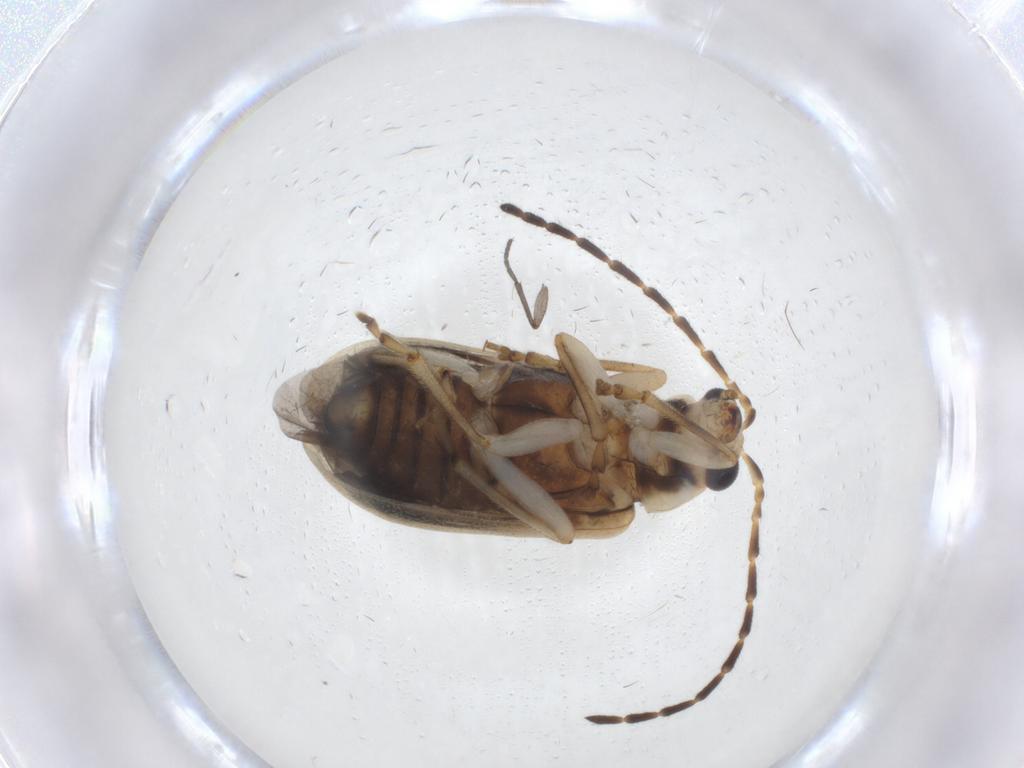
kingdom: Animalia
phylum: Arthropoda
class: Insecta
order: Coleoptera
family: Chrysomelidae
